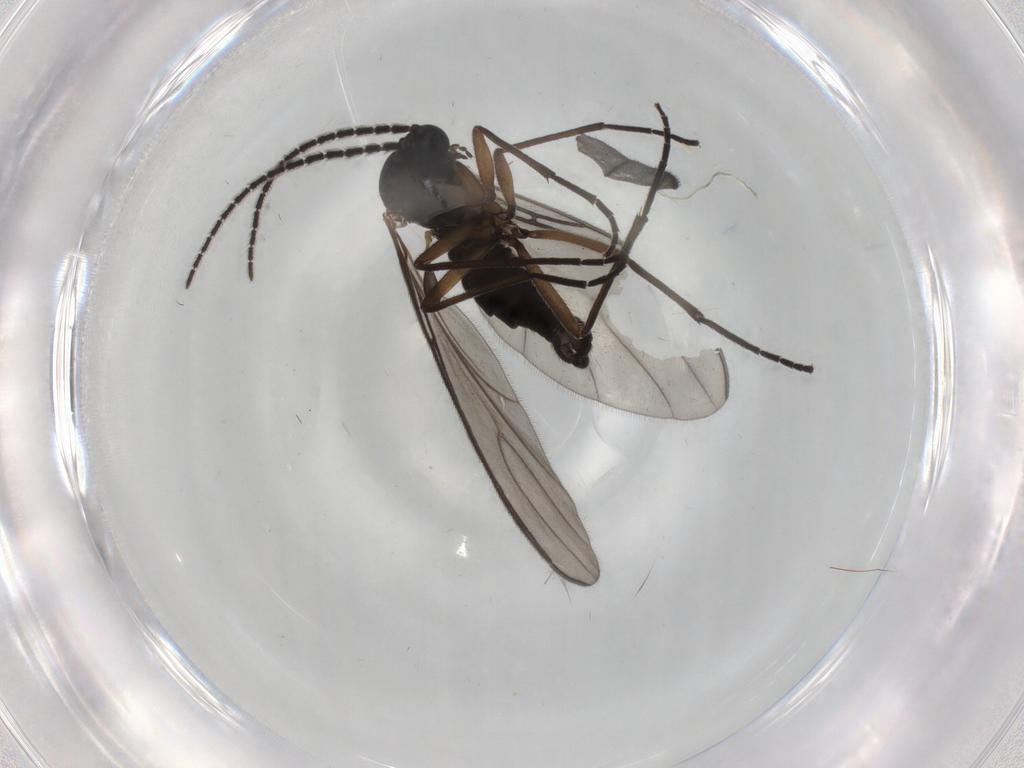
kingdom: Animalia
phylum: Arthropoda
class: Insecta
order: Diptera
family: Sciaridae
